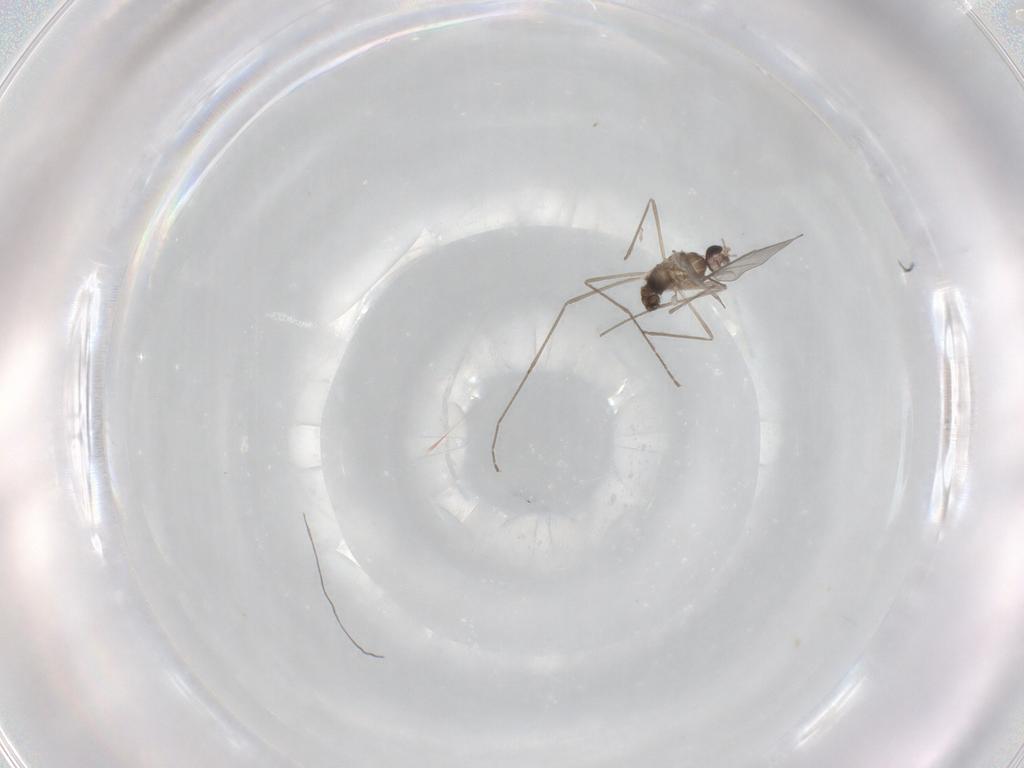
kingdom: Animalia
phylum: Arthropoda
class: Insecta
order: Diptera
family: Cecidomyiidae
